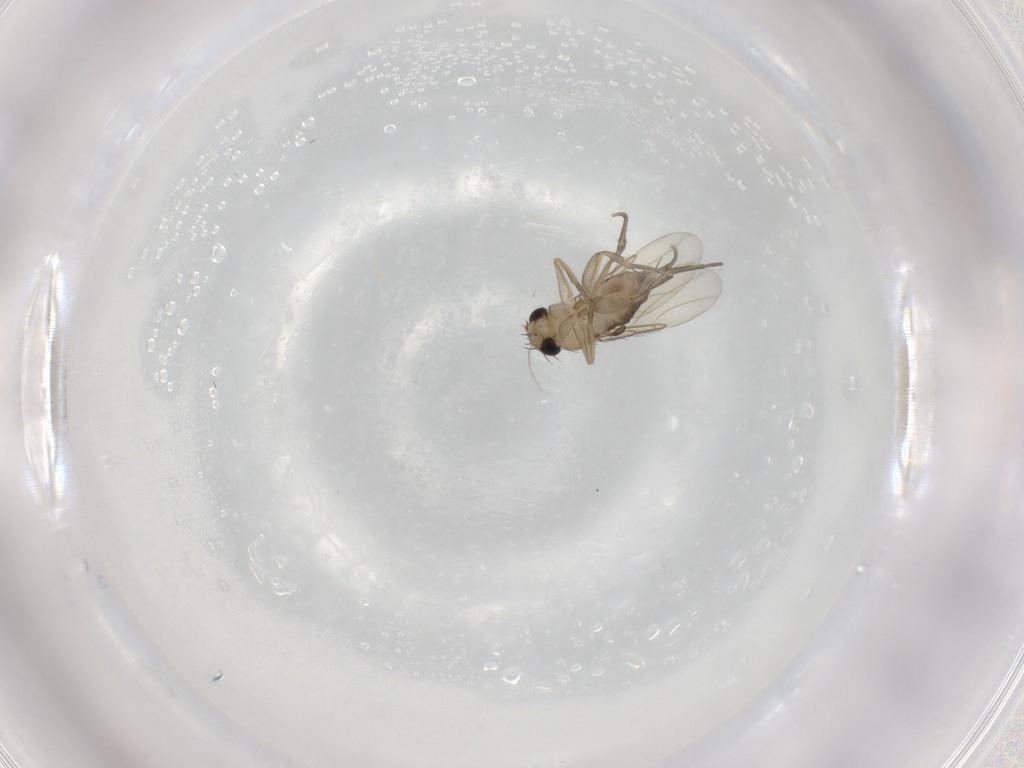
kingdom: Animalia
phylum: Arthropoda
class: Insecta
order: Diptera
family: Phoridae
